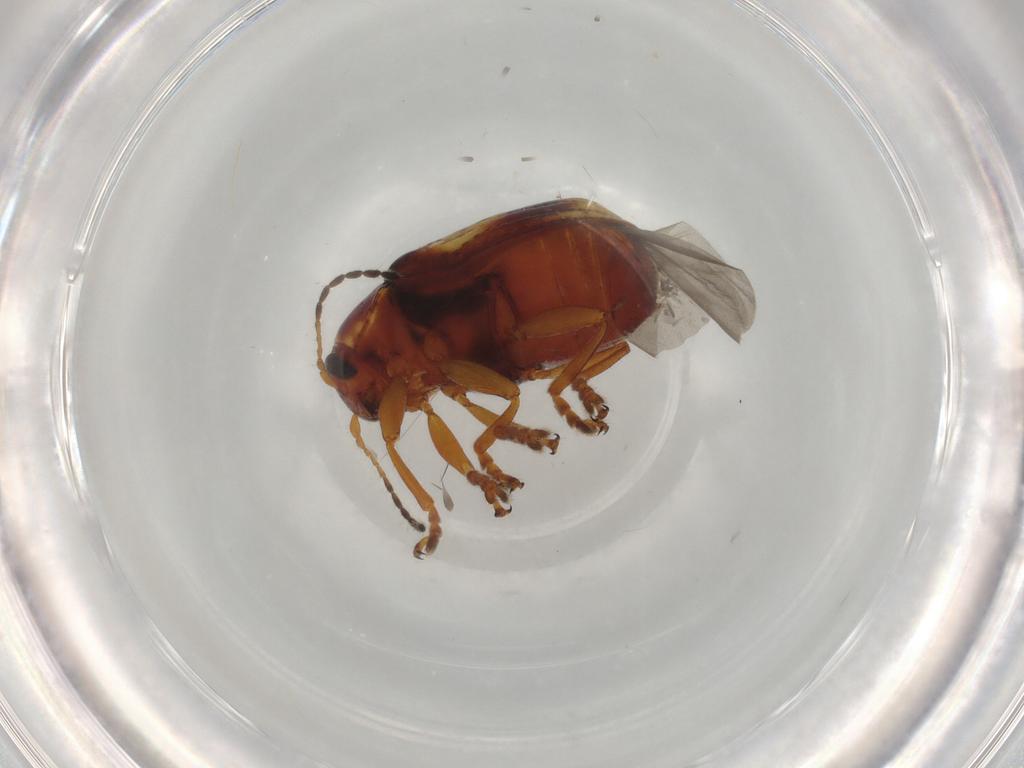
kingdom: Animalia
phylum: Arthropoda
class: Insecta
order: Coleoptera
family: Chrysomelidae
